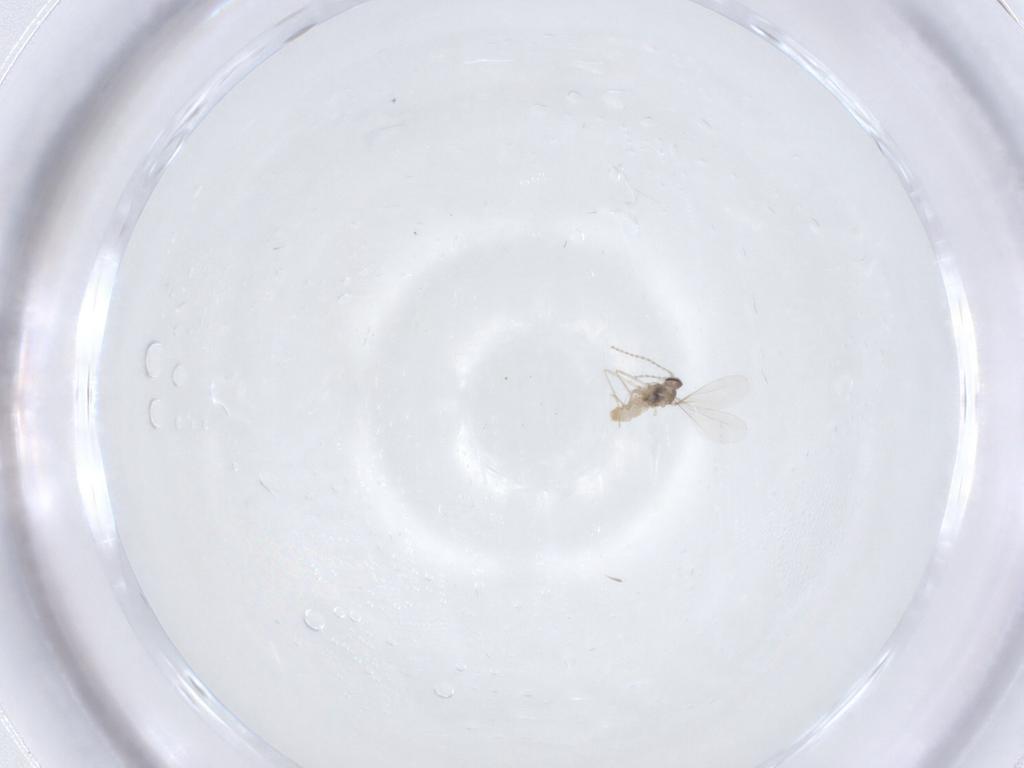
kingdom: Animalia
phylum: Arthropoda
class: Insecta
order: Diptera
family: Cecidomyiidae
